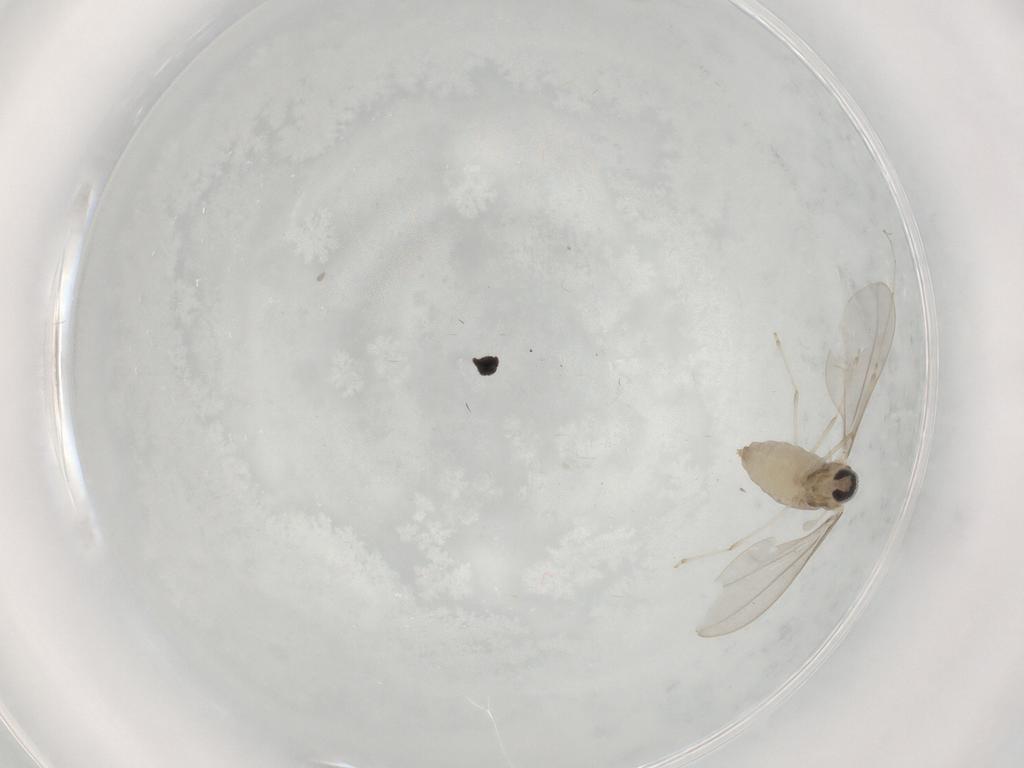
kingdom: Animalia
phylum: Arthropoda
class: Insecta
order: Diptera
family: Cecidomyiidae
